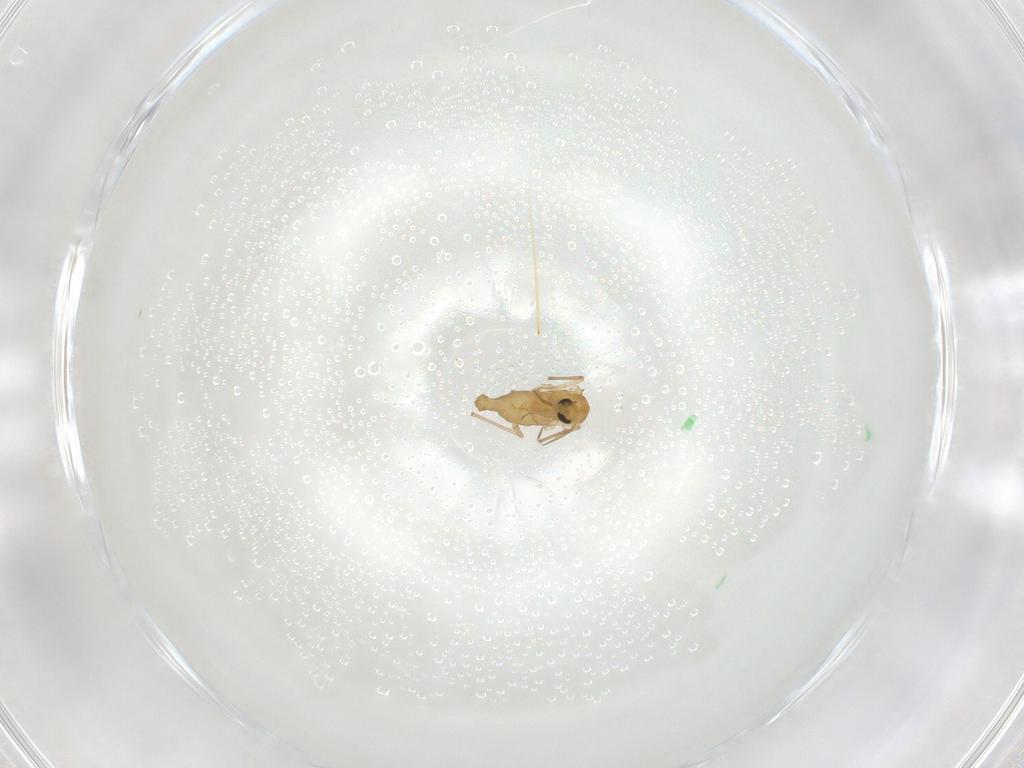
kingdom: Animalia
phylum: Arthropoda
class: Insecta
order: Diptera
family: Chironomidae
